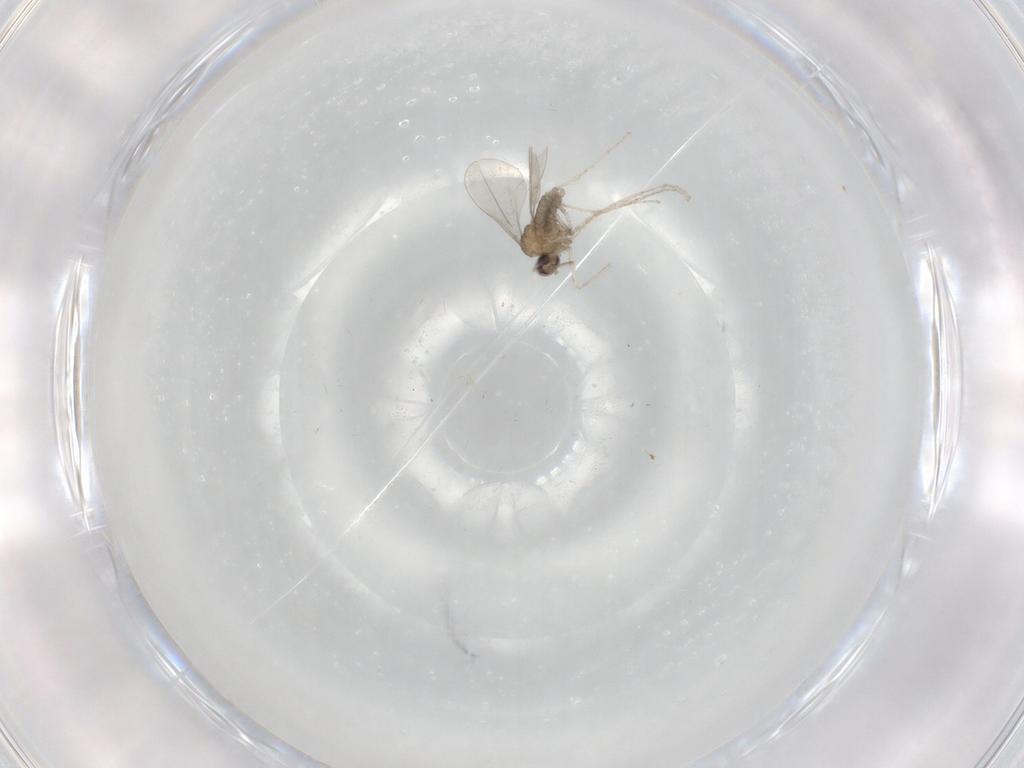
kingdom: Animalia
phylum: Arthropoda
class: Insecta
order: Diptera
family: Cecidomyiidae
